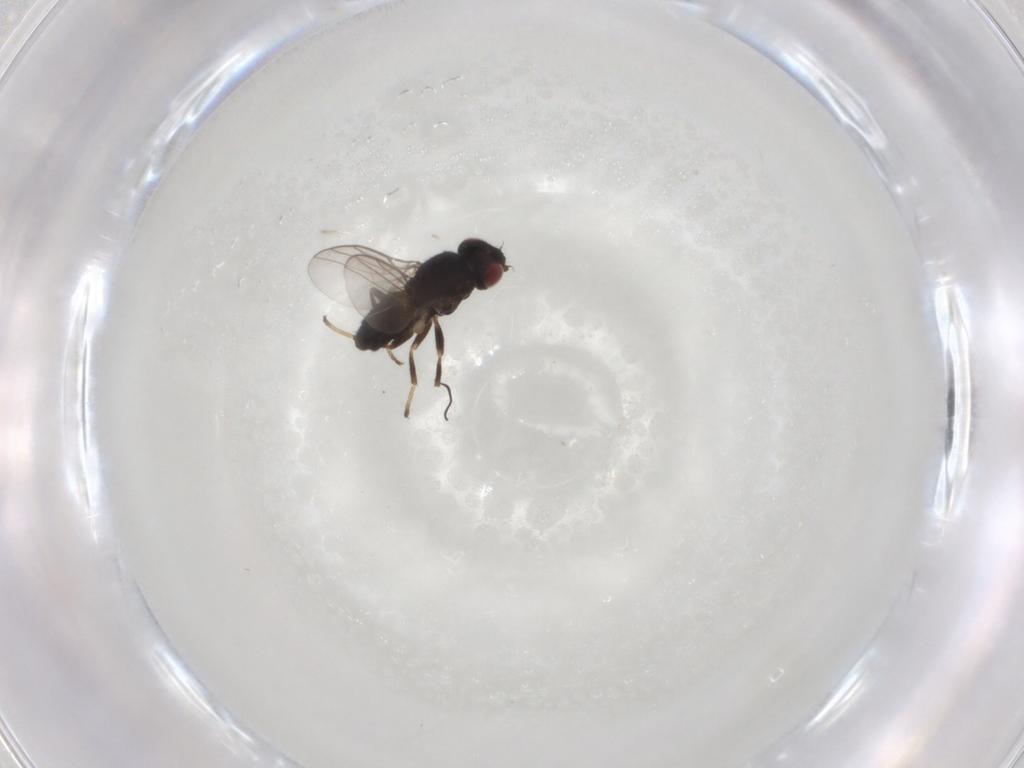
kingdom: Animalia
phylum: Arthropoda
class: Insecta
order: Diptera
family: Chloropidae
